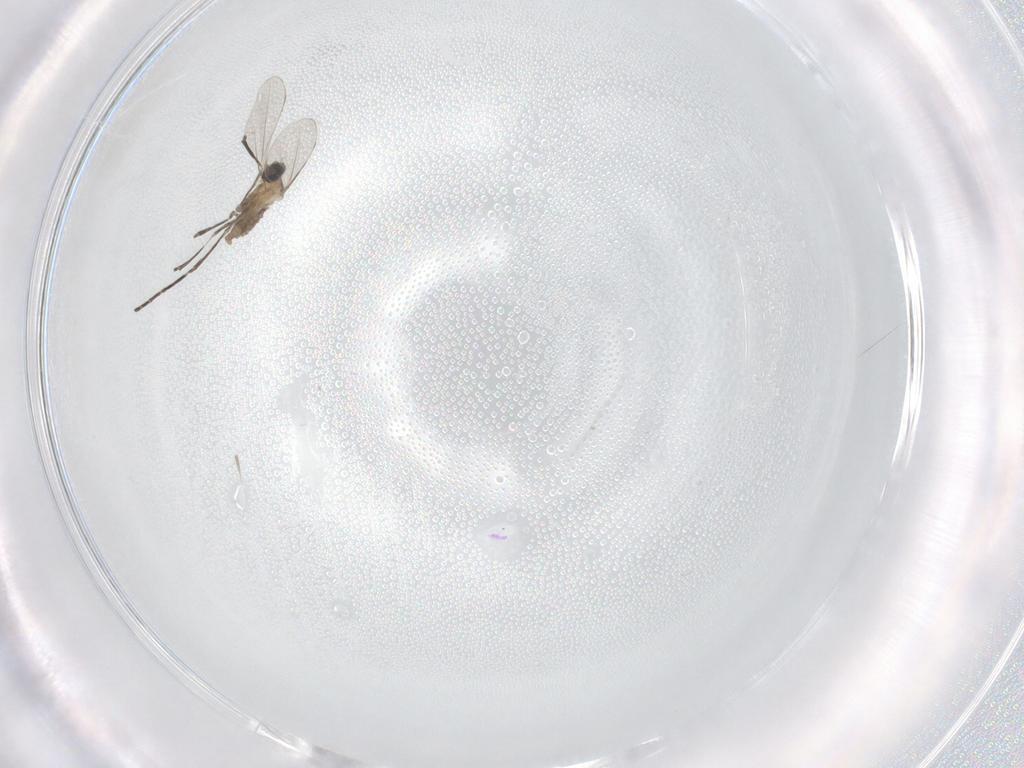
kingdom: Animalia
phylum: Arthropoda
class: Insecta
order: Diptera
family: Cecidomyiidae
